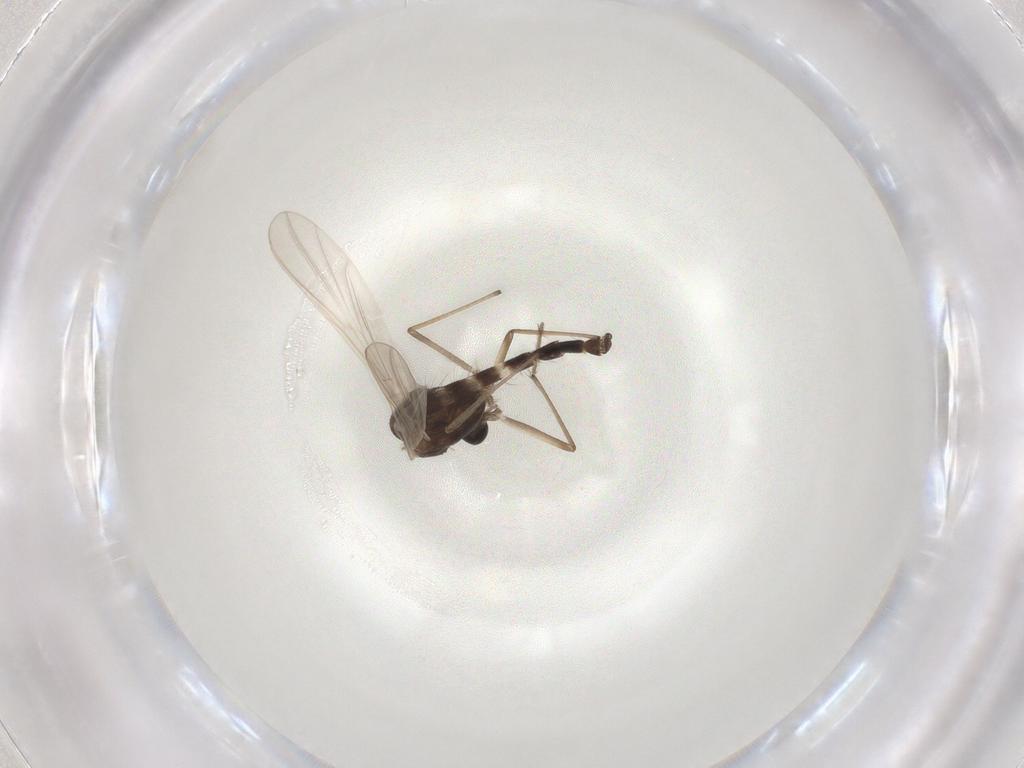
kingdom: Animalia
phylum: Arthropoda
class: Insecta
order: Diptera
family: Chironomidae
